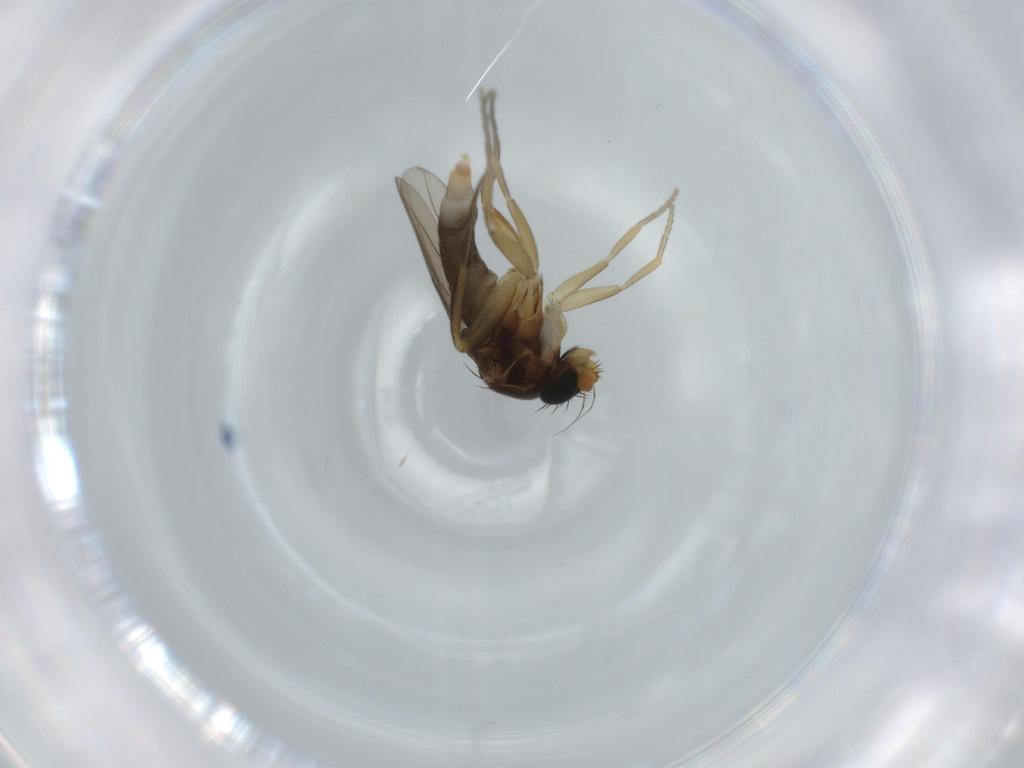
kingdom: Animalia
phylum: Arthropoda
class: Insecta
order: Diptera
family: Phoridae
